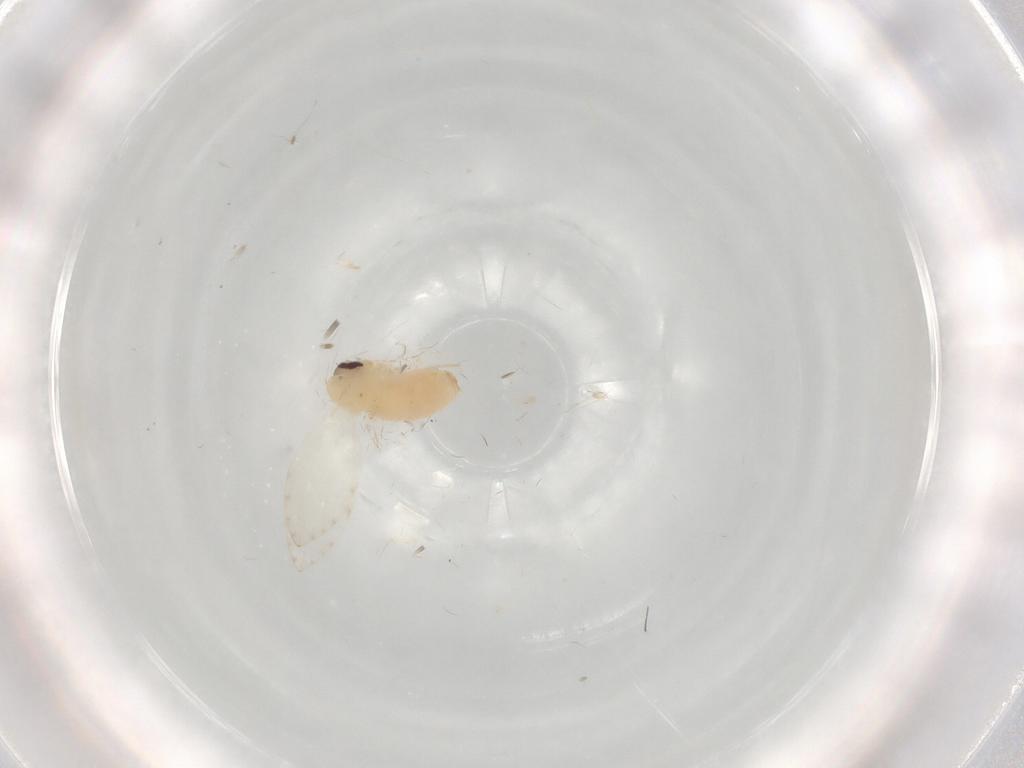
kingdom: Animalia
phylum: Arthropoda
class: Insecta
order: Diptera
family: Psychodidae
